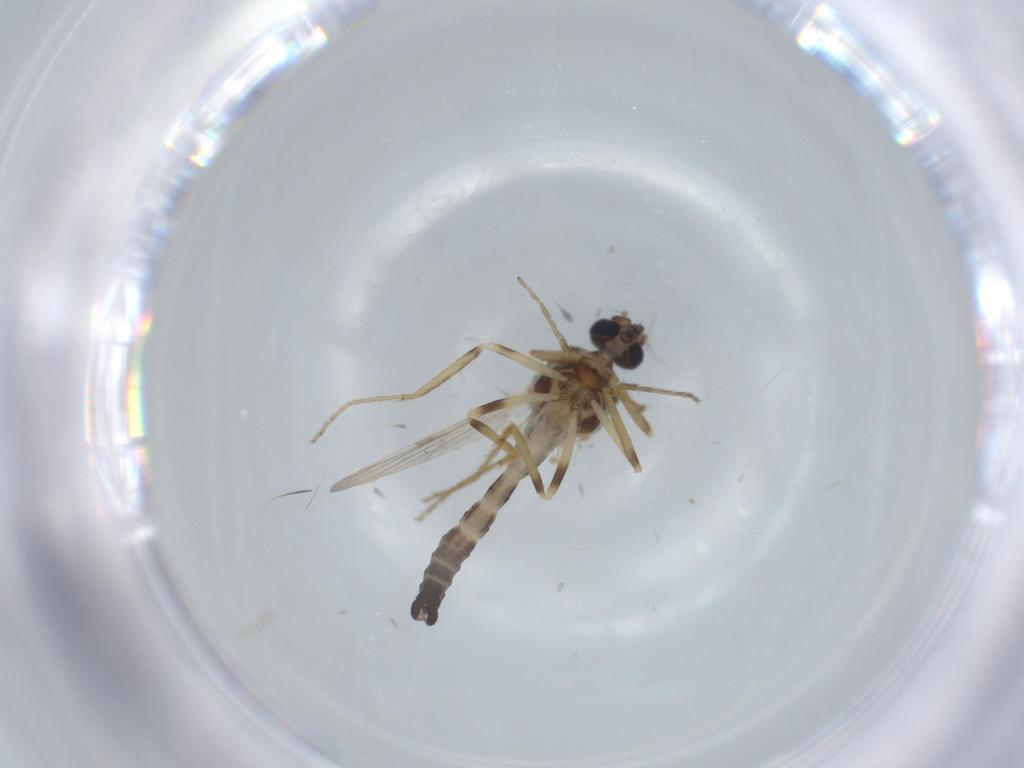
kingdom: Animalia
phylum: Arthropoda
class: Insecta
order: Diptera
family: Ceratopogonidae
